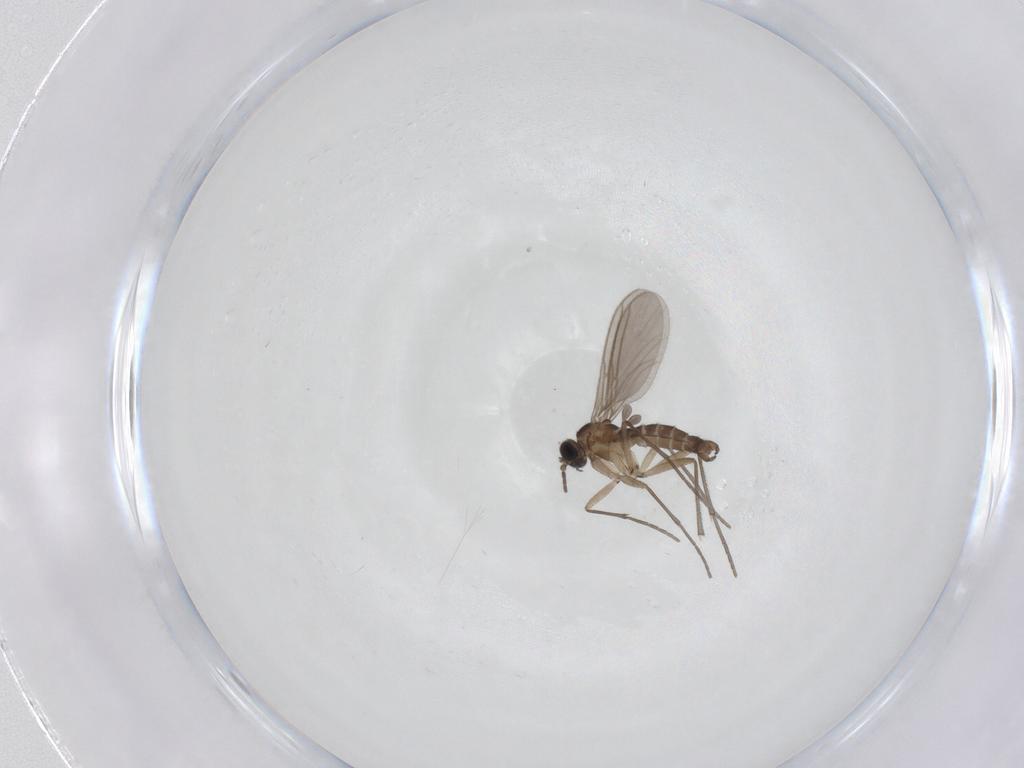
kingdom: Animalia
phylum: Arthropoda
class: Insecta
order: Diptera
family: Sciaridae
